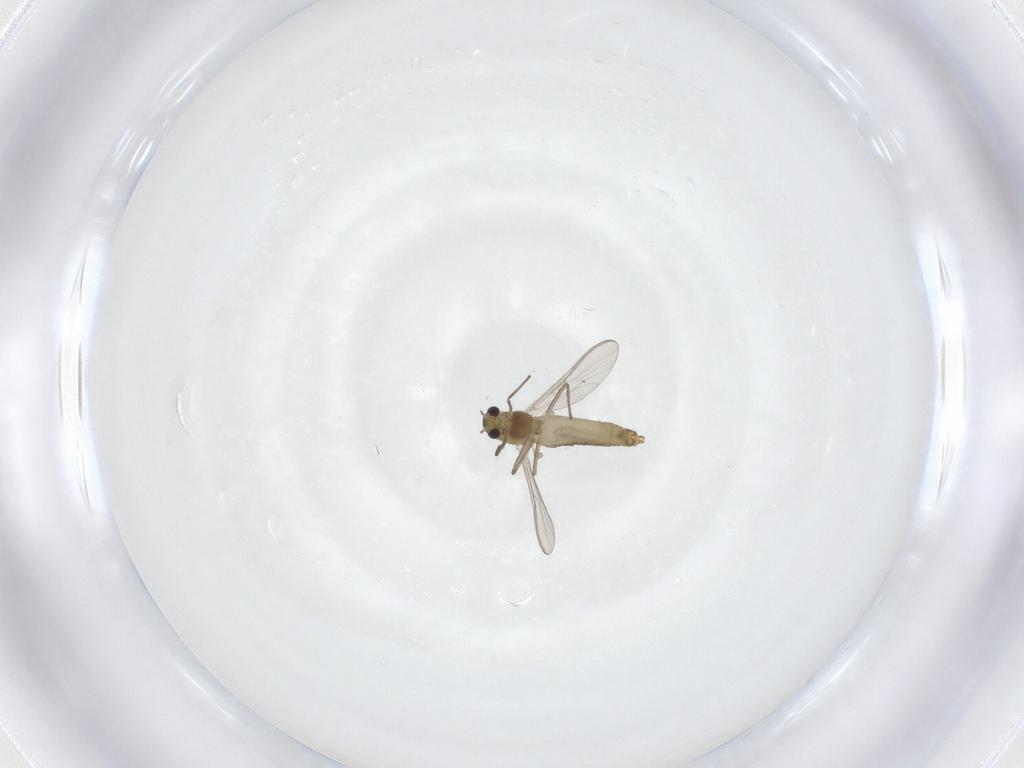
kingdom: Animalia
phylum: Arthropoda
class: Insecta
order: Diptera
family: Chironomidae
